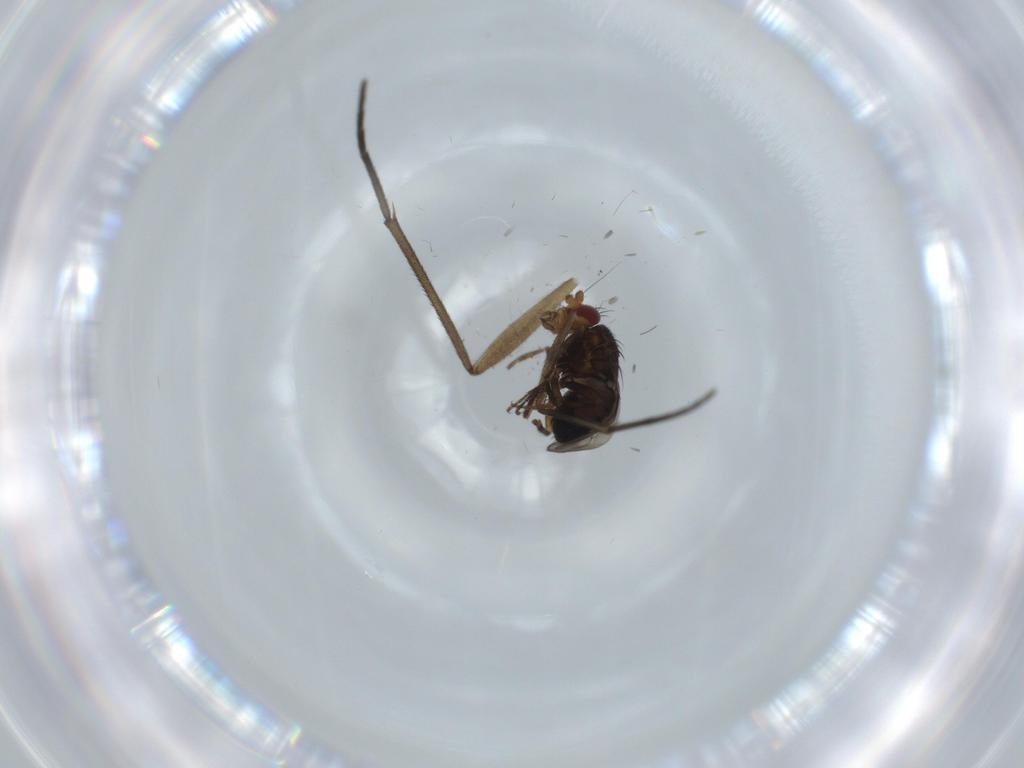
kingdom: Animalia
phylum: Arthropoda
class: Insecta
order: Diptera
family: Sciaridae
